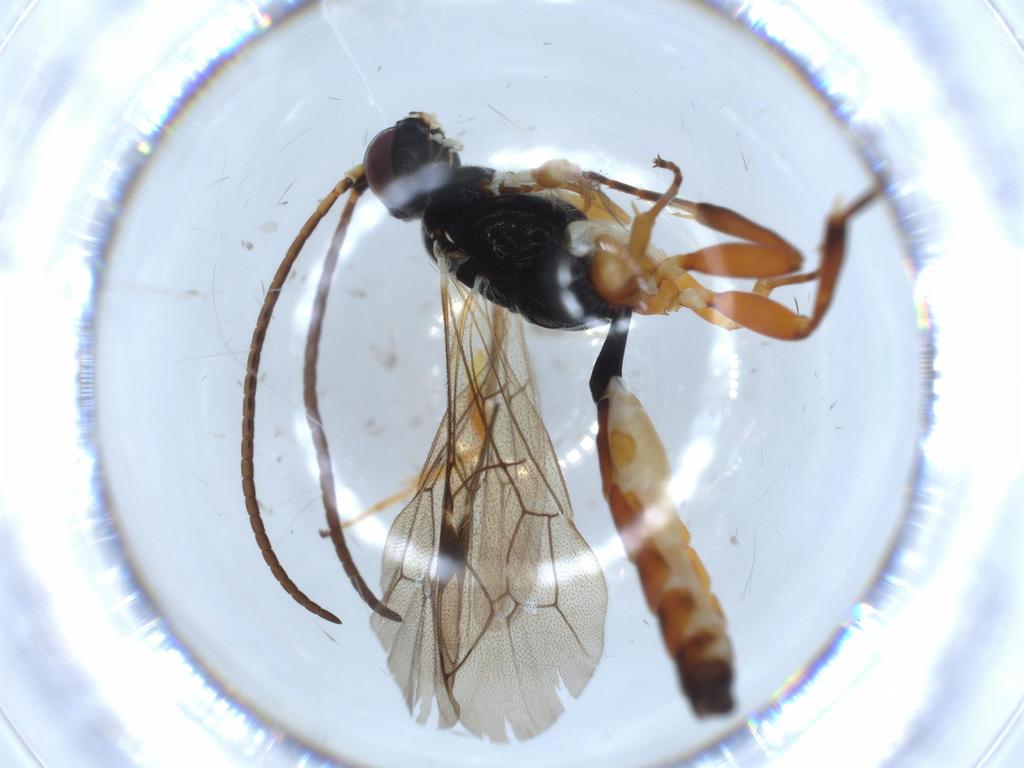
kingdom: Animalia
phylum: Arthropoda
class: Insecta
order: Hymenoptera
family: Ichneumonidae
